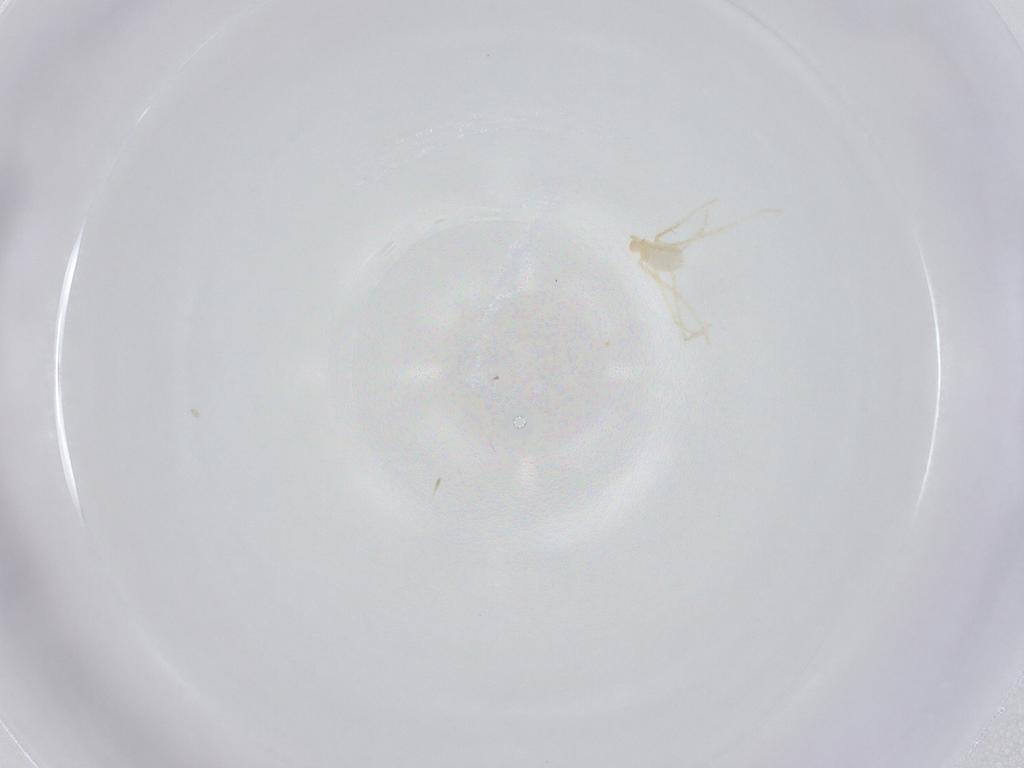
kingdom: Animalia
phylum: Arthropoda
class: Arachnida
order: Trombidiformes
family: Erythraeidae
